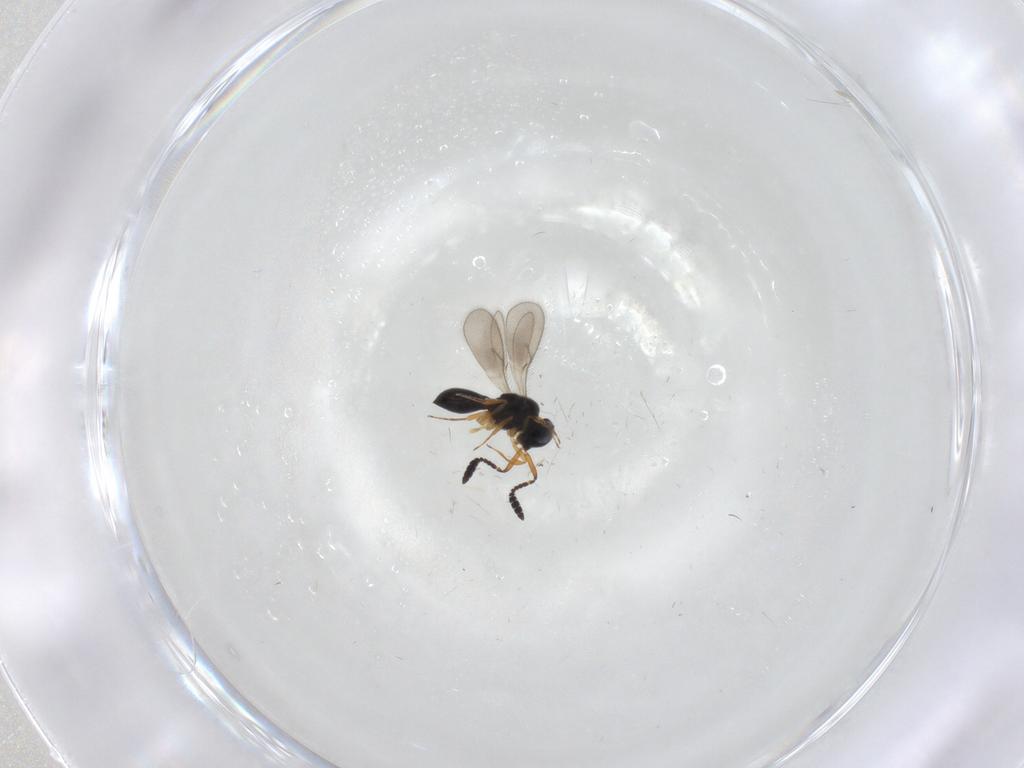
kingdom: Animalia
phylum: Arthropoda
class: Insecta
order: Hymenoptera
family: Scelionidae
